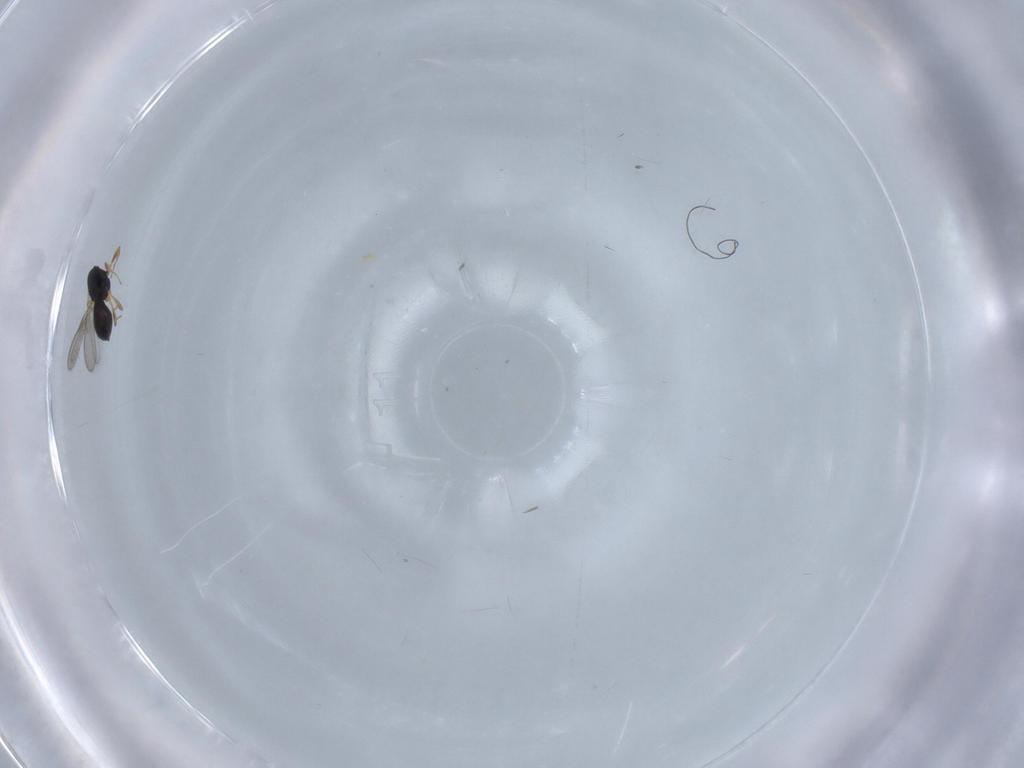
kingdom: Animalia
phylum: Arthropoda
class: Insecta
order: Hymenoptera
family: Scelionidae
